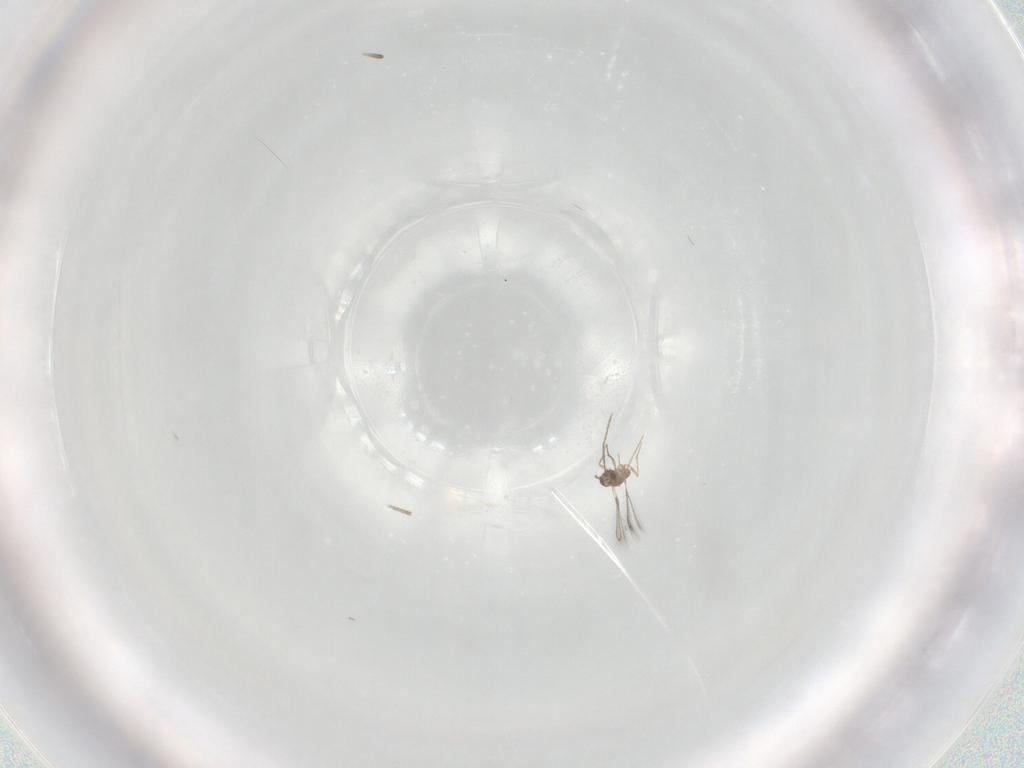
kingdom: Animalia
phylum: Arthropoda
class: Insecta
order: Hymenoptera
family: Mymaridae
